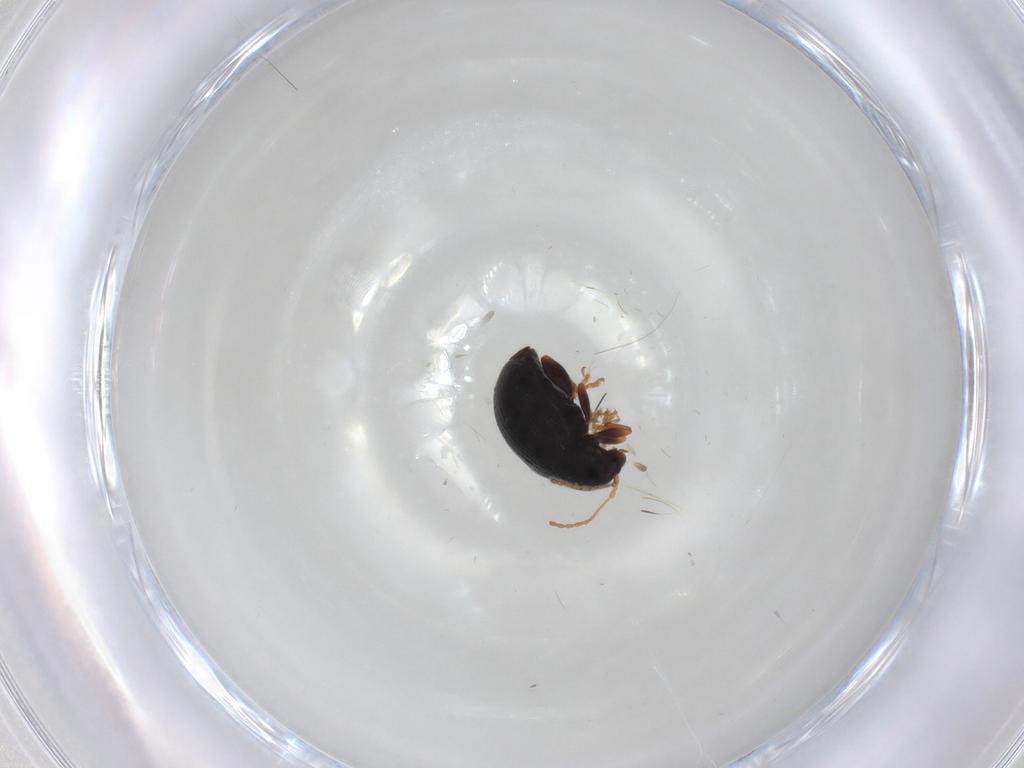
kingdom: Animalia
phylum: Arthropoda
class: Insecta
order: Coleoptera
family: Chrysomelidae
